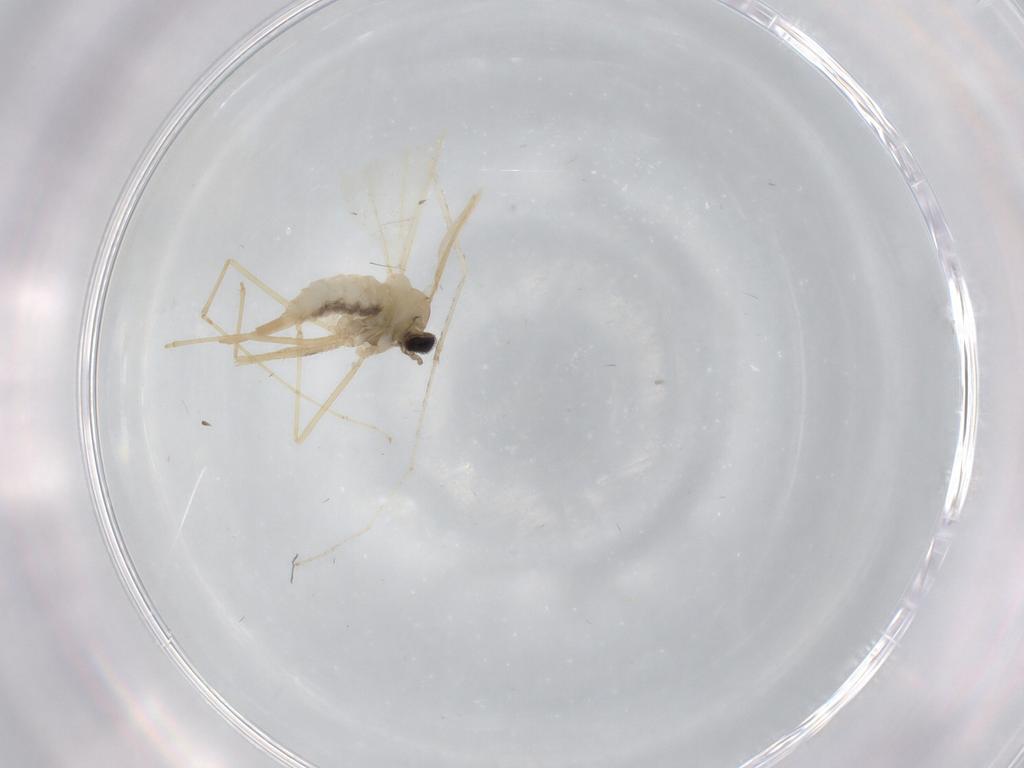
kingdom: Animalia
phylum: Arthropoda
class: Insecta
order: Diptera
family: Cecidomyiidae
